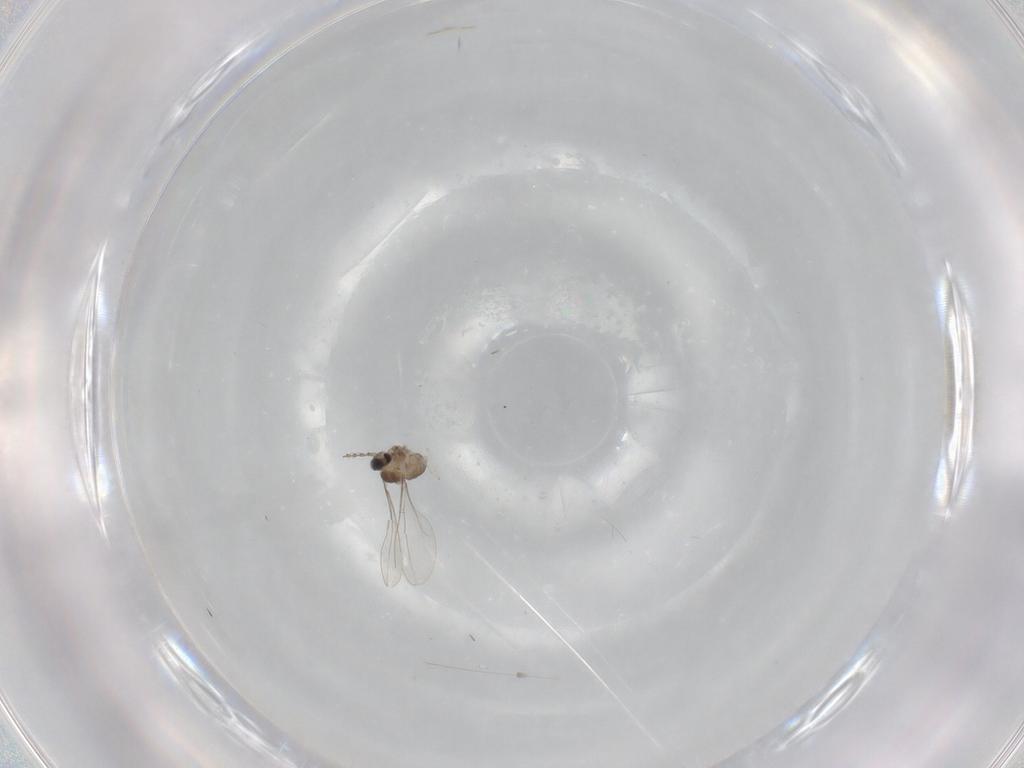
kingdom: Animalia
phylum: Arthropoda
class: Insecta
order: Diptera
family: Cecidomyiidae
